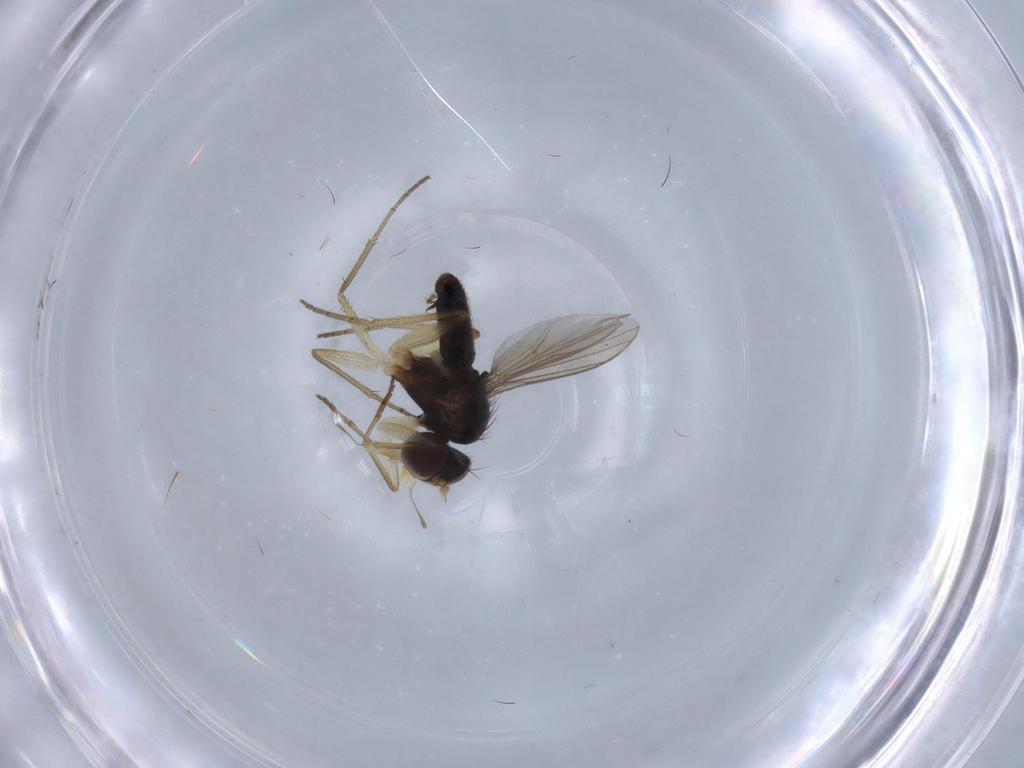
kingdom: Animalia
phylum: Arthropoda
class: Insecta
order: Diptera
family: Dolichopodidae
